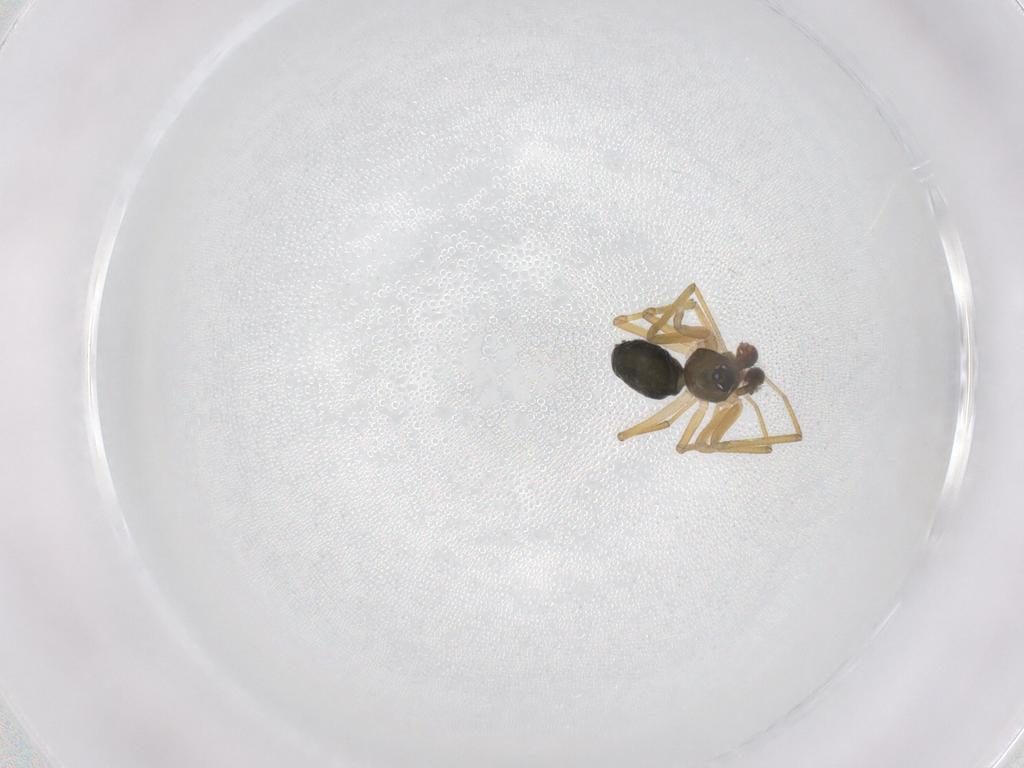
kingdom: Animalia
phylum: Arthropoda
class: Arachnida
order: Araneae
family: Linyphiidae
